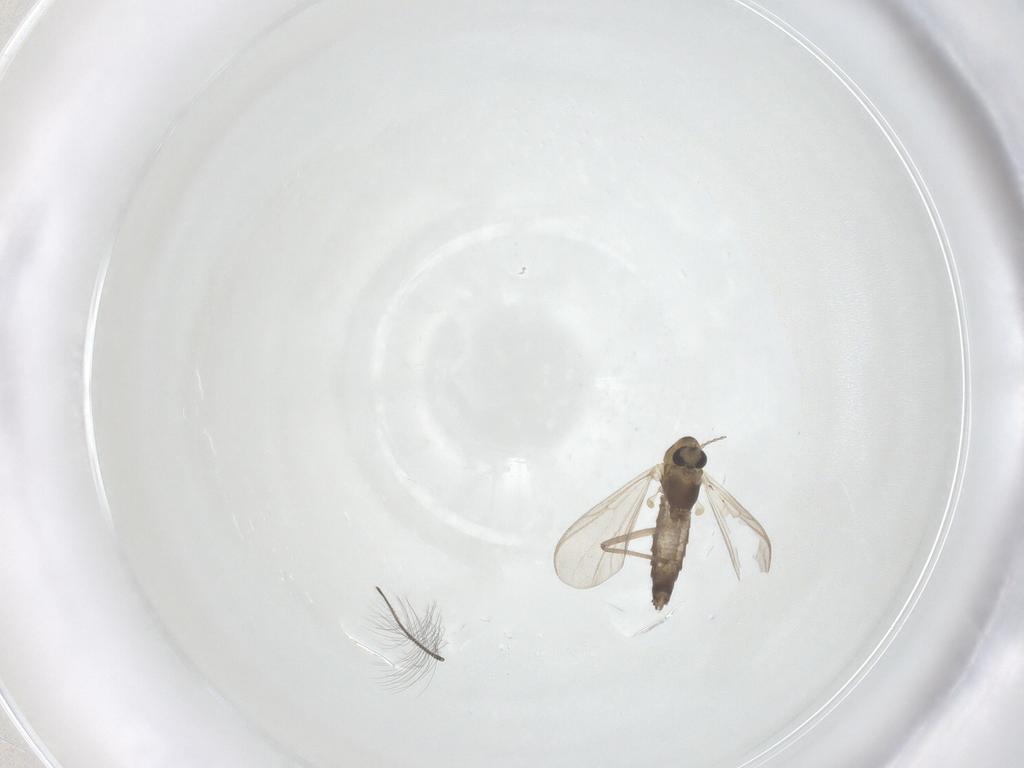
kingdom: Animalia
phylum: Arthropoda
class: Insecta
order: Diptera
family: Chironomidae
